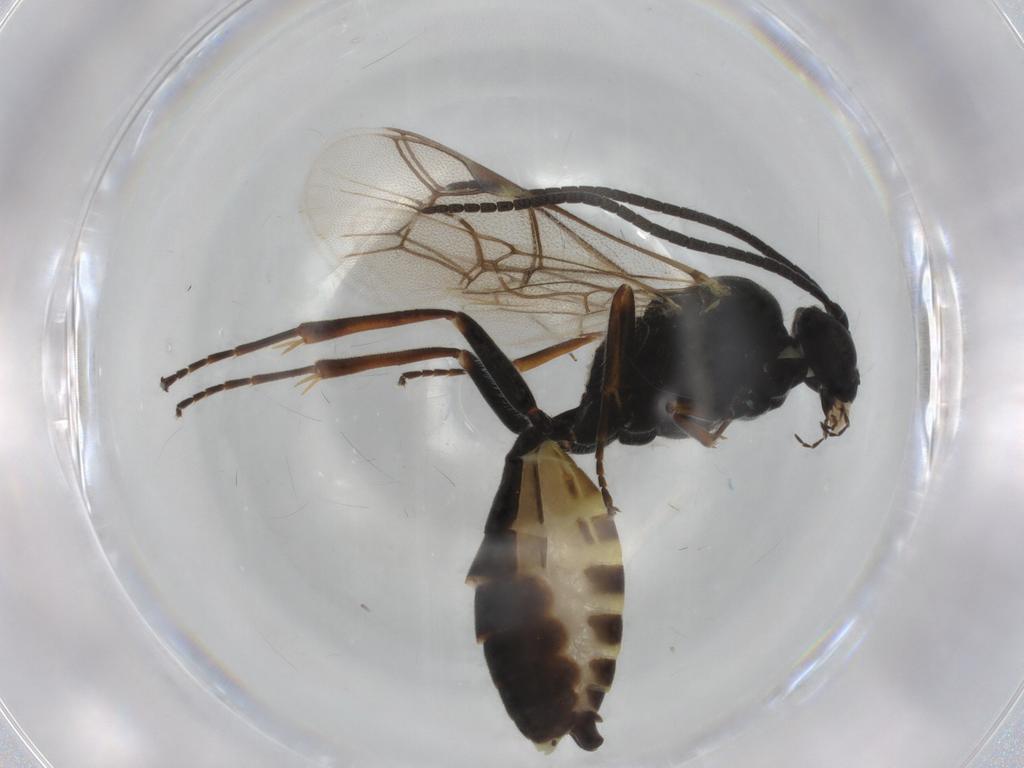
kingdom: Animalia
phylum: Arthropoda
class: Insecta
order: Hymenoptera
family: Ichneumonidae
